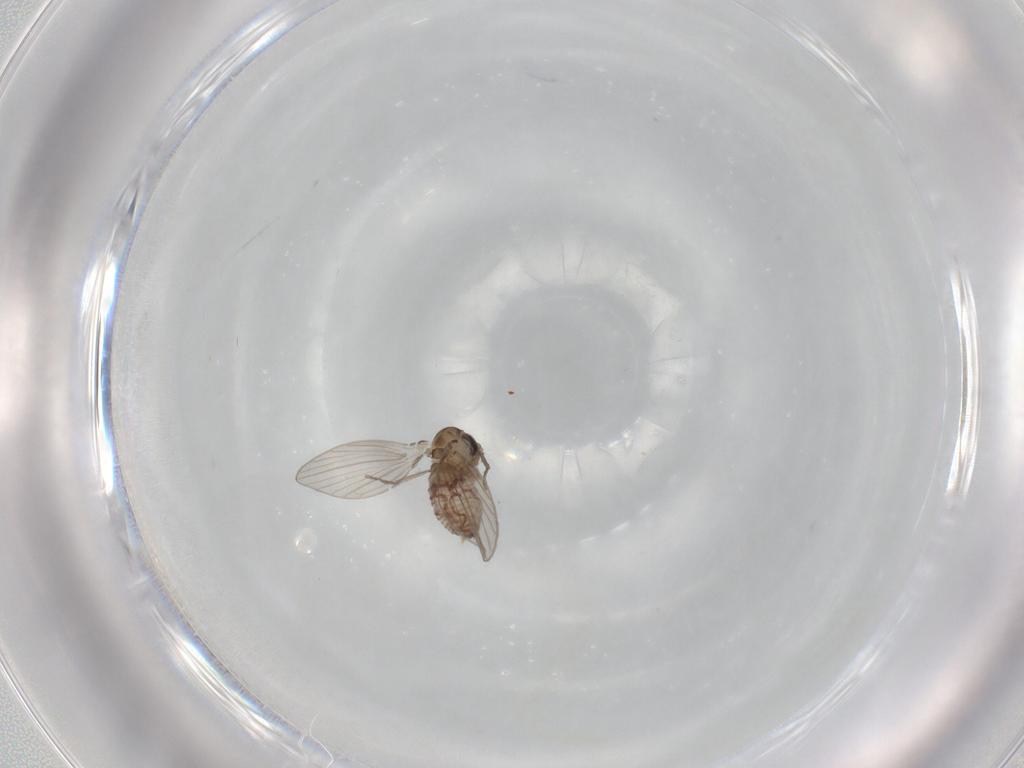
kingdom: Animalia
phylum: Arthropoda
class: Insecta
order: Diptera
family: Psychodidae
